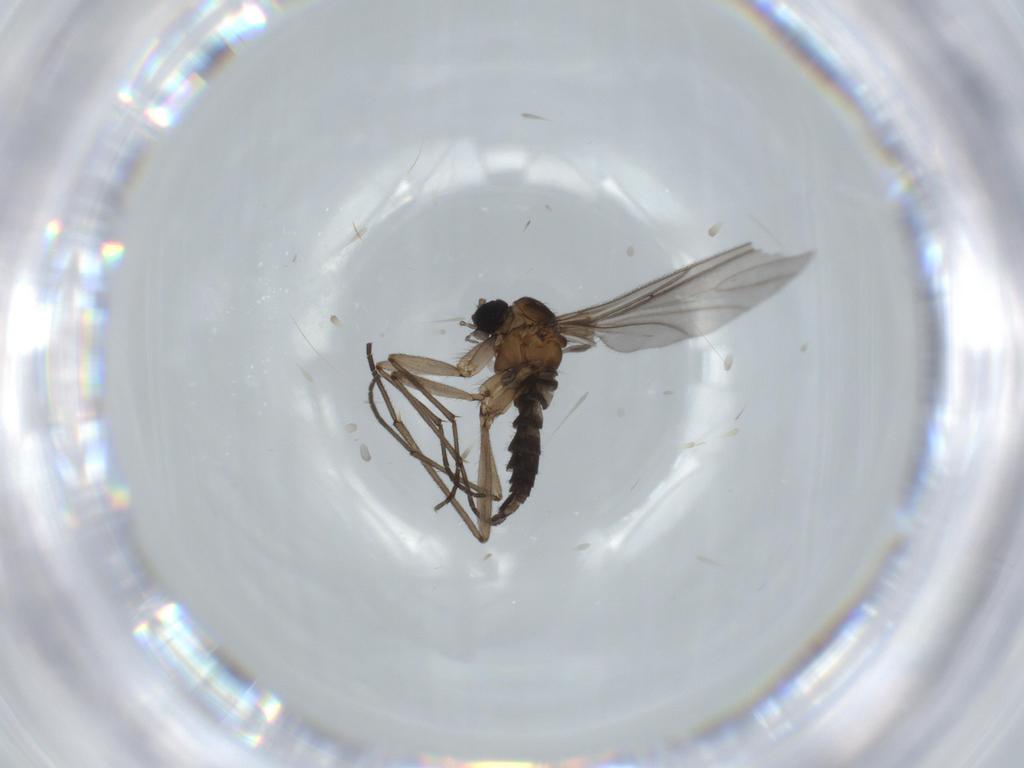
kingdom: Animalia
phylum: Arthropoda
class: Insecta
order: Diptera
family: Sciaridae
